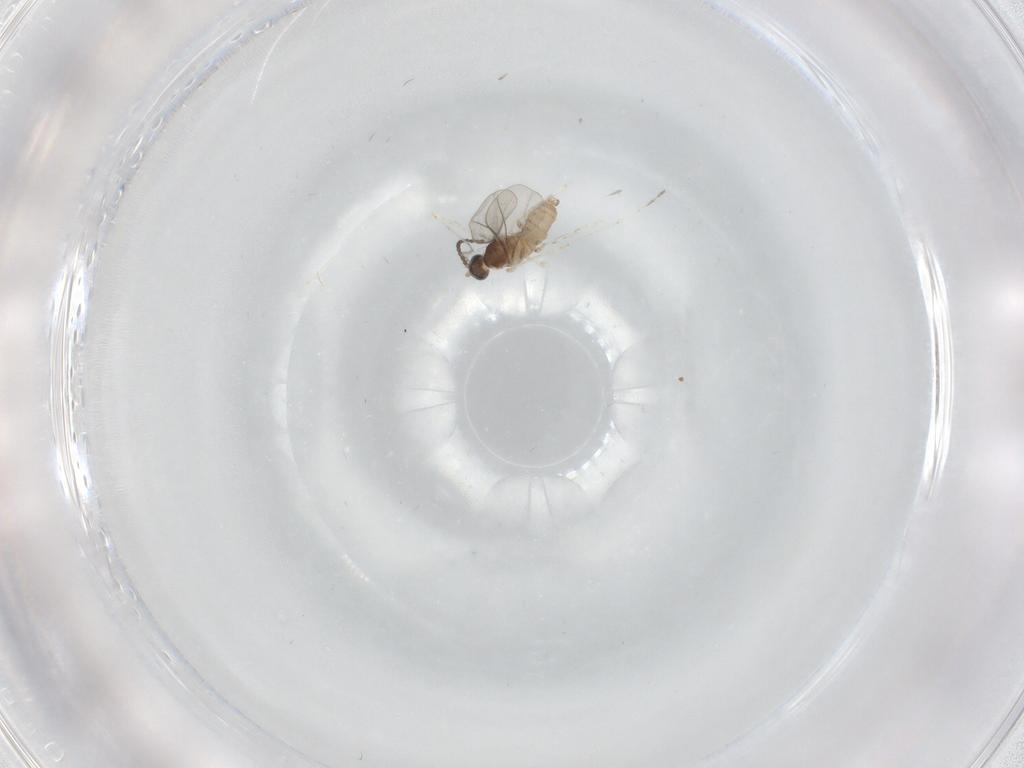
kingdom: Animalia
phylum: Arthropoda
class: Insecta
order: Diptera
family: Cecidomyiidae
